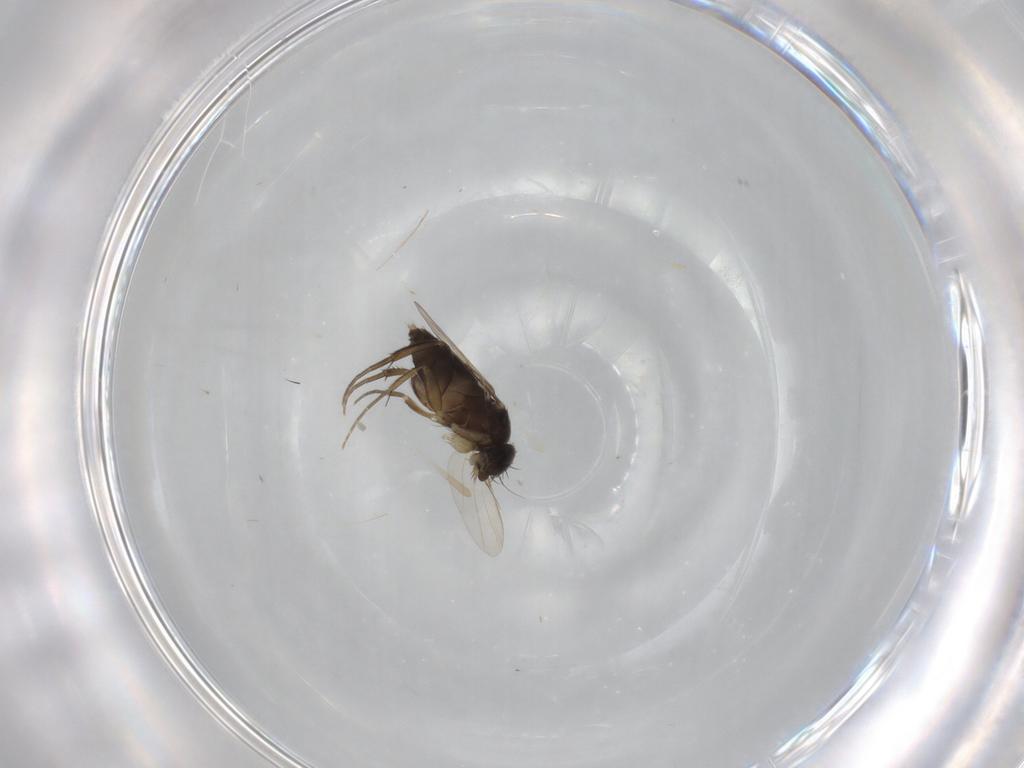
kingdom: Animalia
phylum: Arthropoda
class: Insecta
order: Diptera
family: Phoridae
